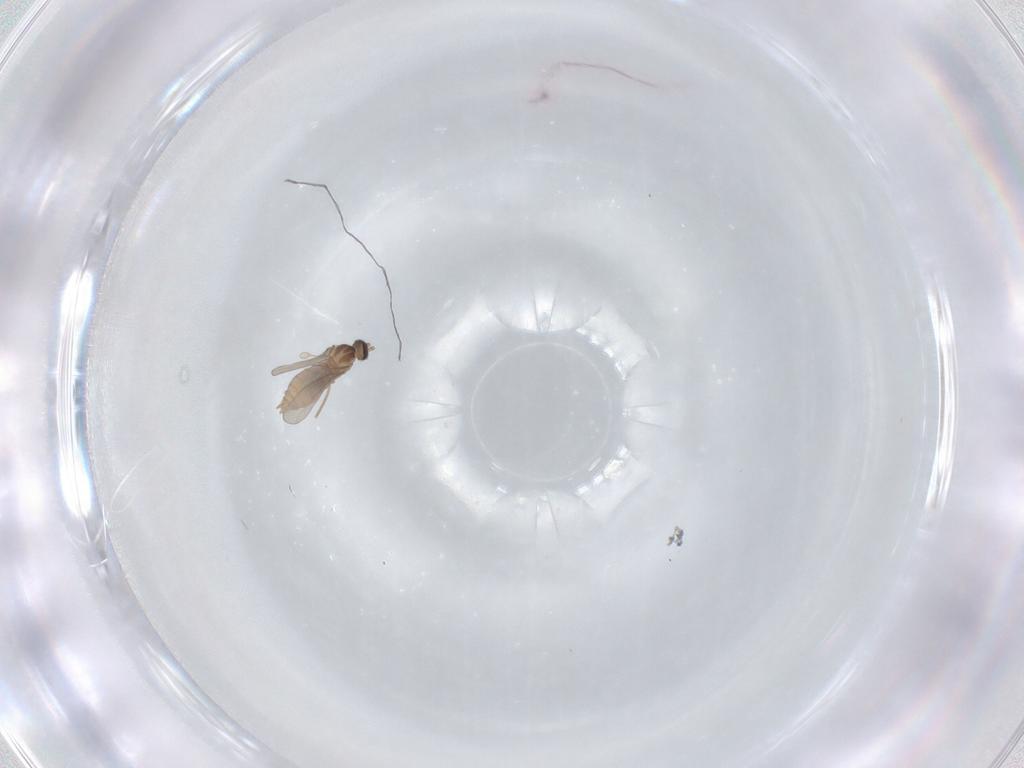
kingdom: Animalia
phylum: Arthropoda
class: Insecta
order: Diptera
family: Cecidomyiidae
